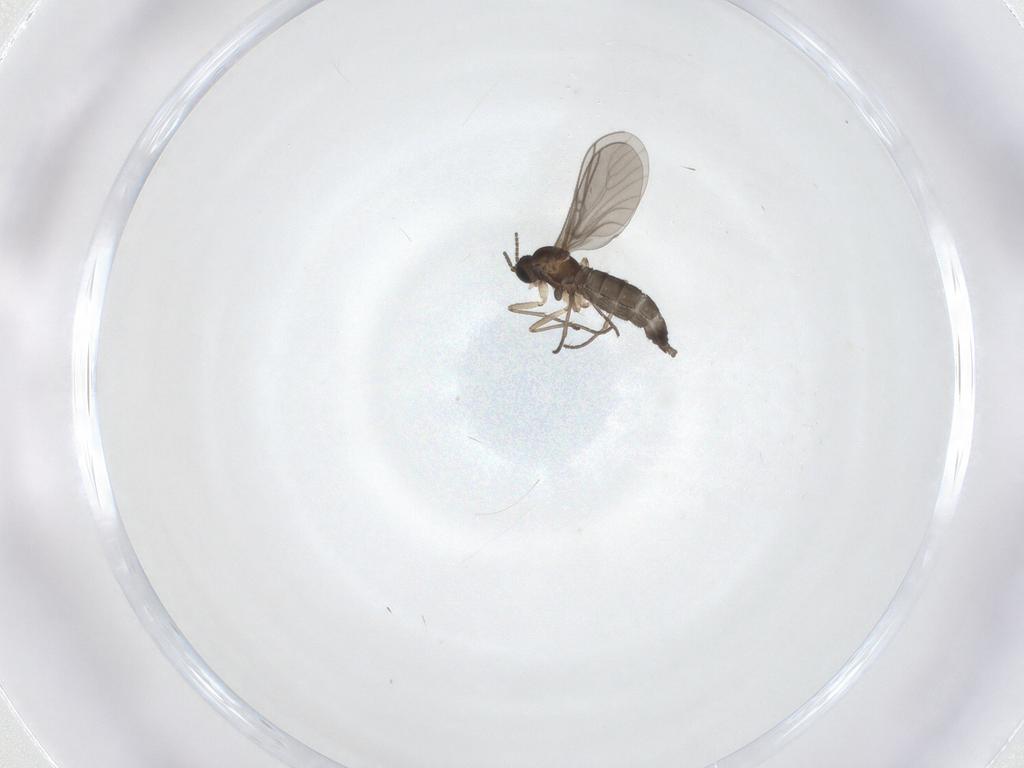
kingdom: Animalia
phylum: Arthropoda
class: Insecta
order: Diptera
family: Sciaridae
